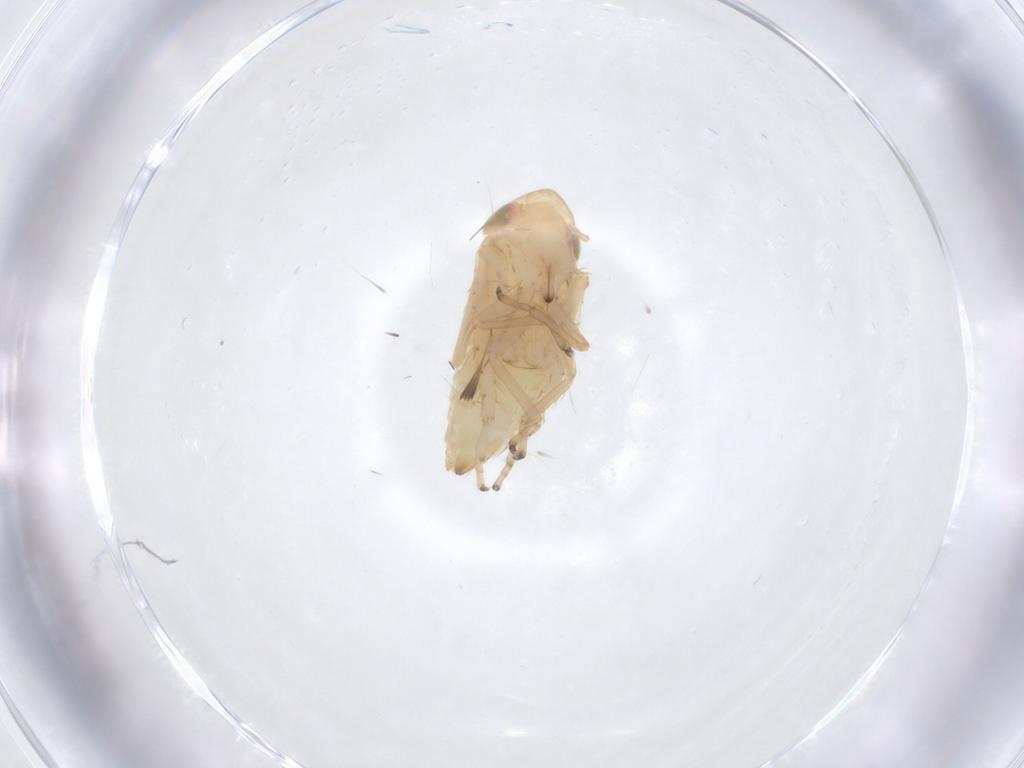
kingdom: Animalia
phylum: Arthropoda
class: Insecta
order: Hemiptera
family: Cicadellidae
